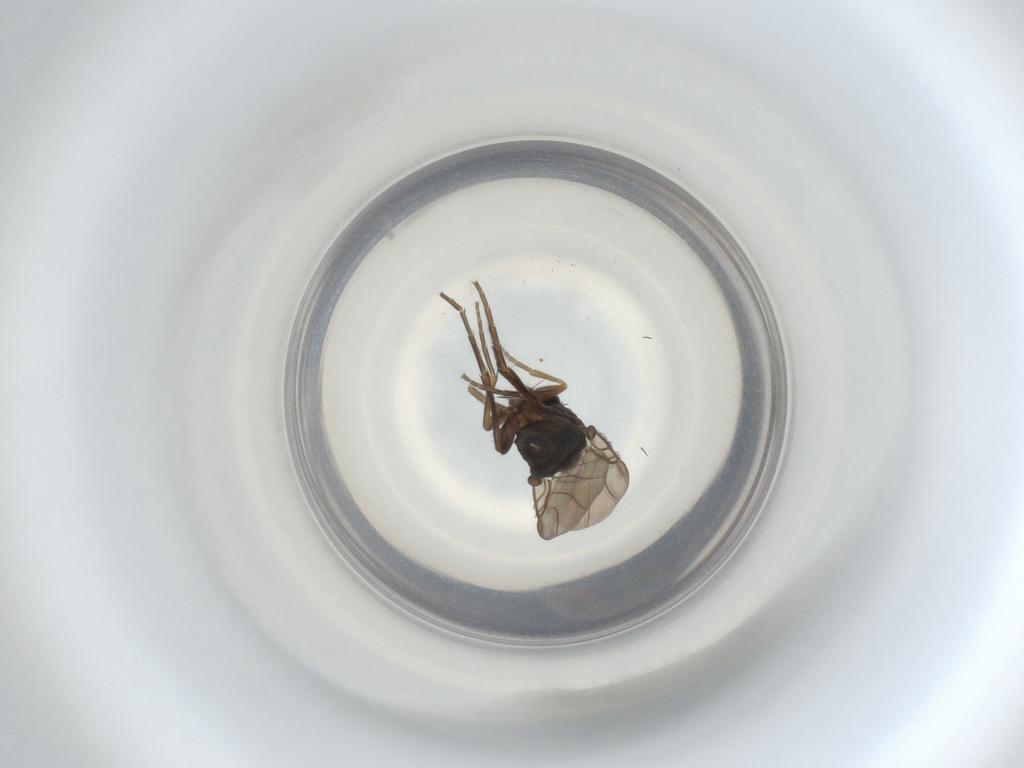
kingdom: Animalia
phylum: Arthropoda
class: Insecta
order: Diptera
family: Phoridae
